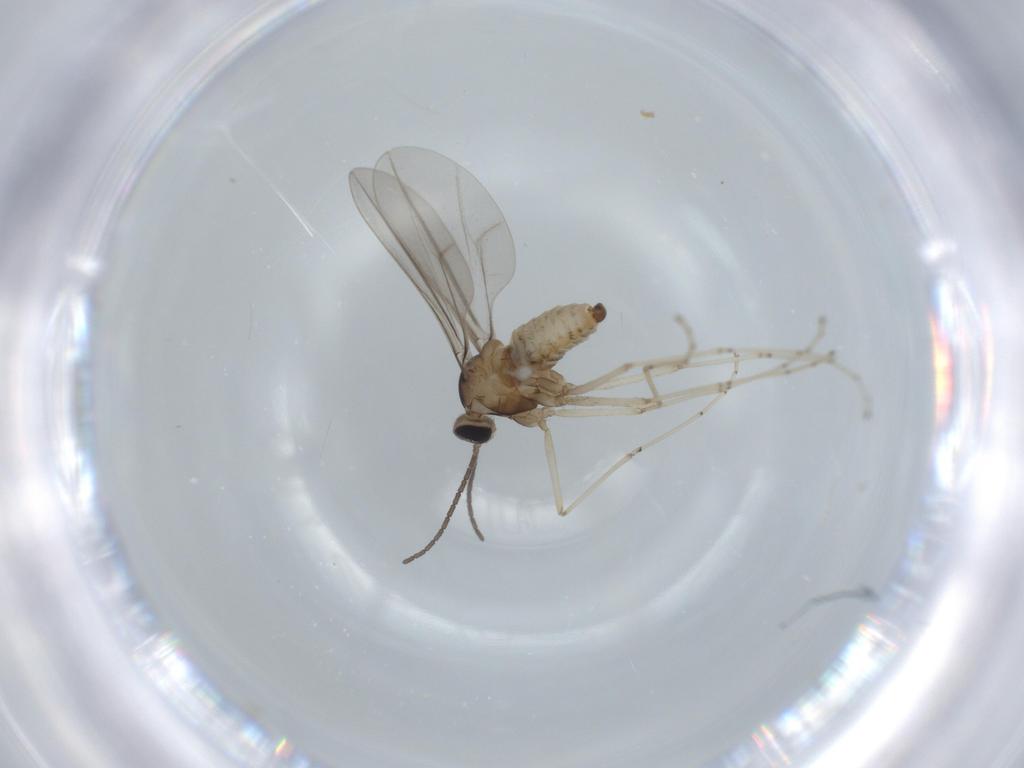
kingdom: Animalia
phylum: Arthropoda
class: Insecta
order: Diptera
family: Cecidomyiidae
